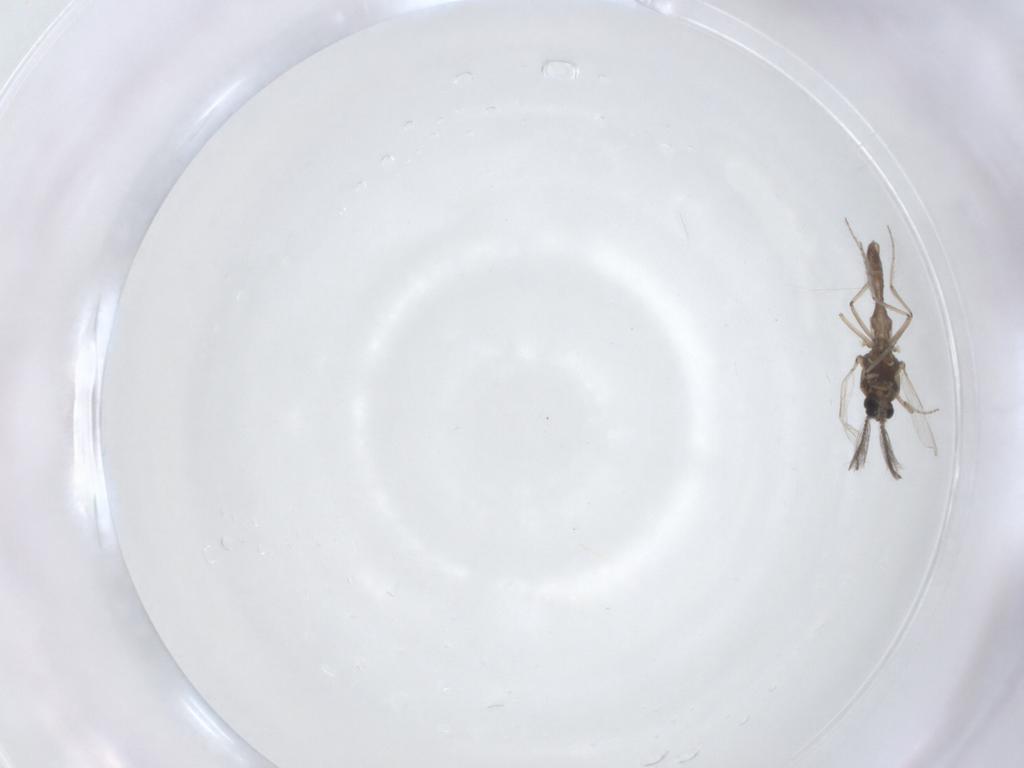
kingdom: Animalia
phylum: Arthropoda
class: Insecta
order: Diptera
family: Ceratopogonidae
